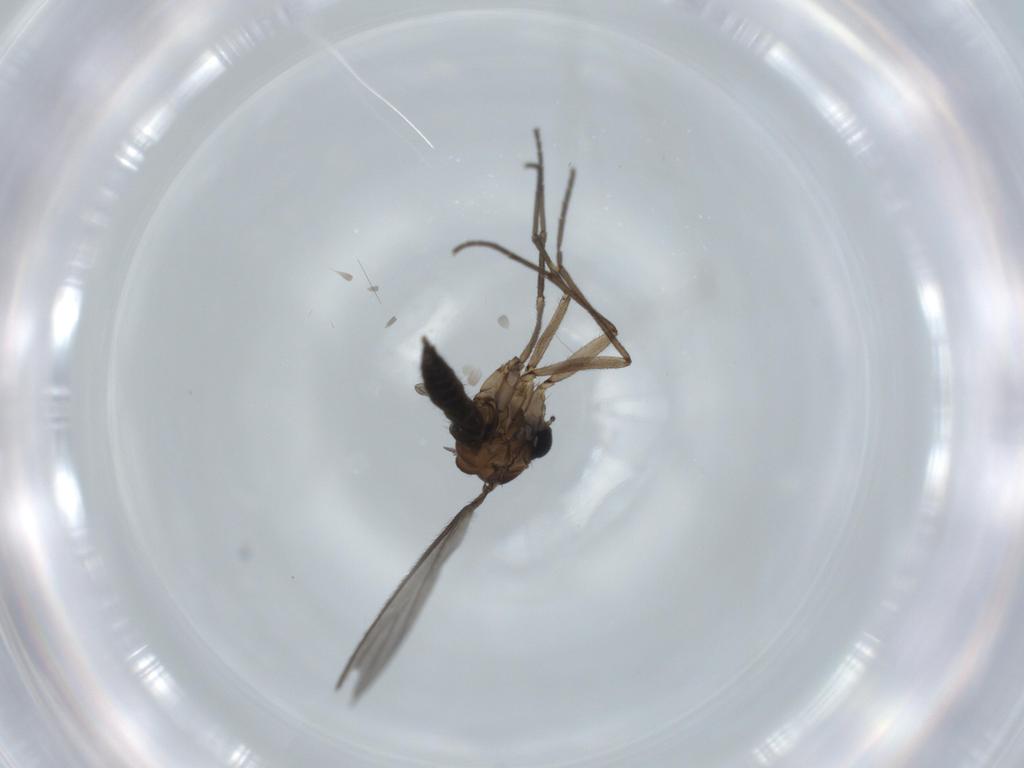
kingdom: Animalia
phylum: Arthropoda
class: Insecta
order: Diptera
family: Sciaridae
